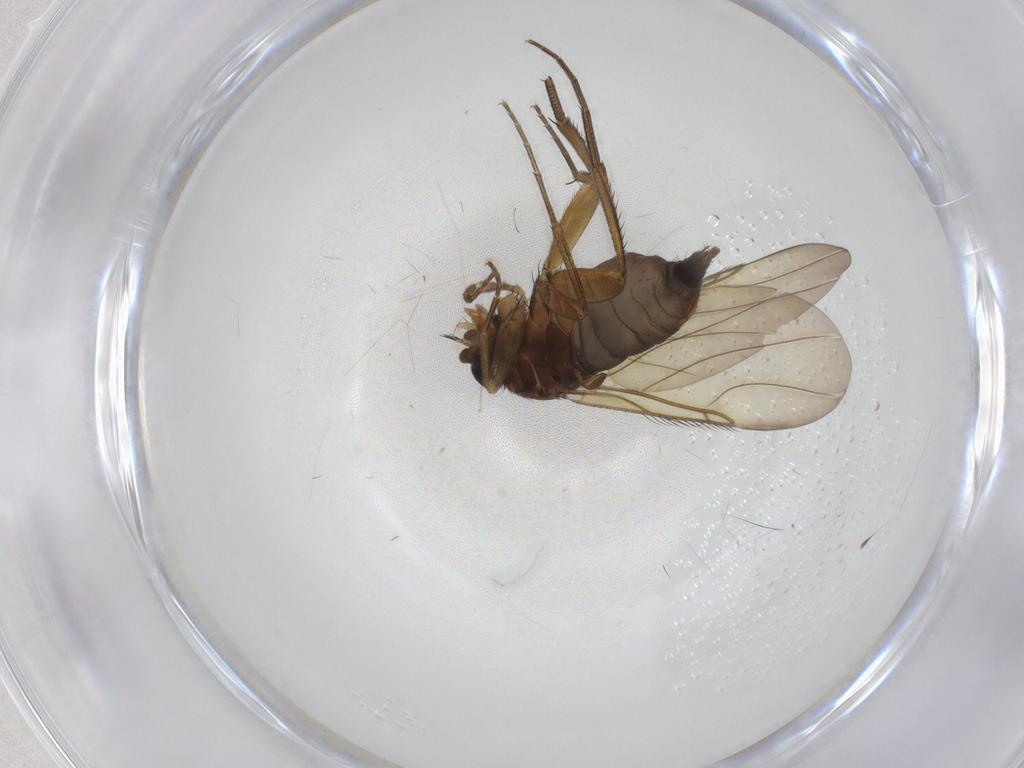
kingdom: Animalia
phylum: Arthropoda
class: Insecta
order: Diptera
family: Phoridae
